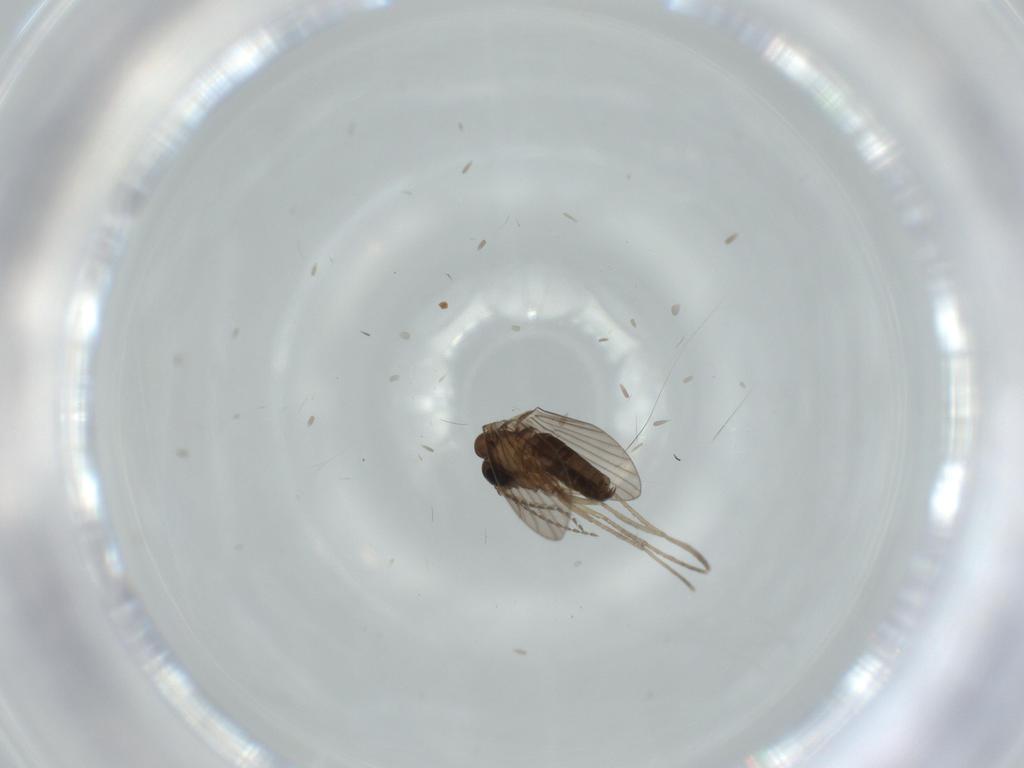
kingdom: Animalia
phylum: Arthropoda
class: Insecta
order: Diptera
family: Psychodidae
